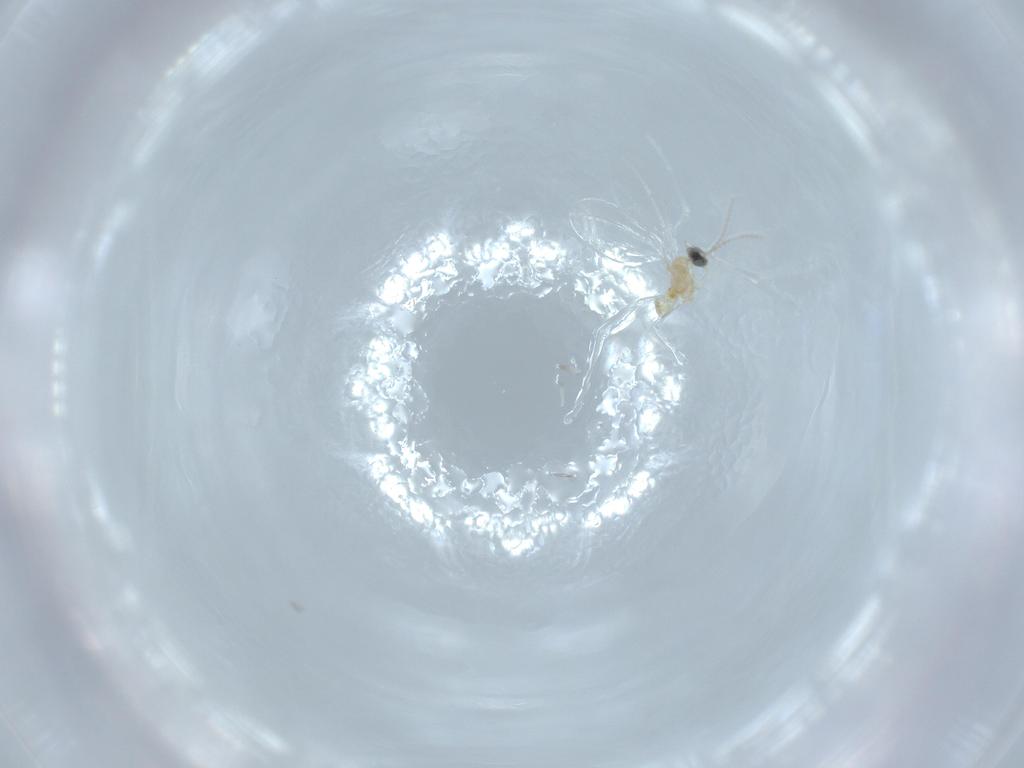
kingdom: Animalia
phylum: Arthropoda
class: Insecta
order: Diptera
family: Cecidomyiidae
